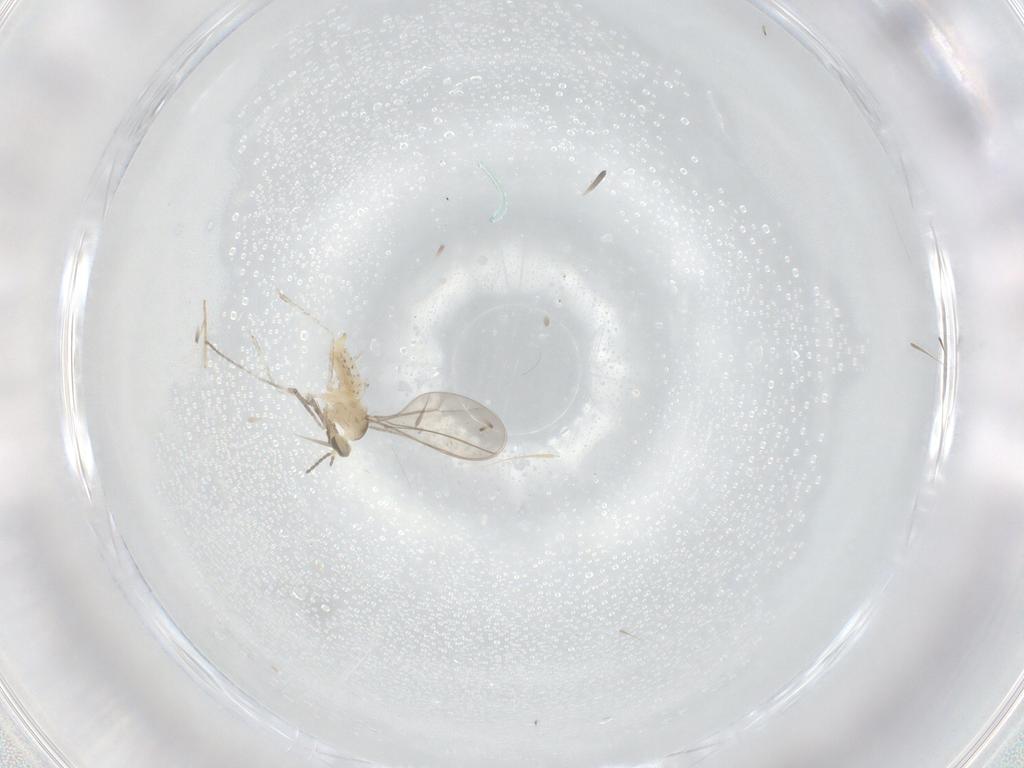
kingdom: Animalia
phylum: Arthropoda
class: Insecta
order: Diptera
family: Cecidomyiidae
